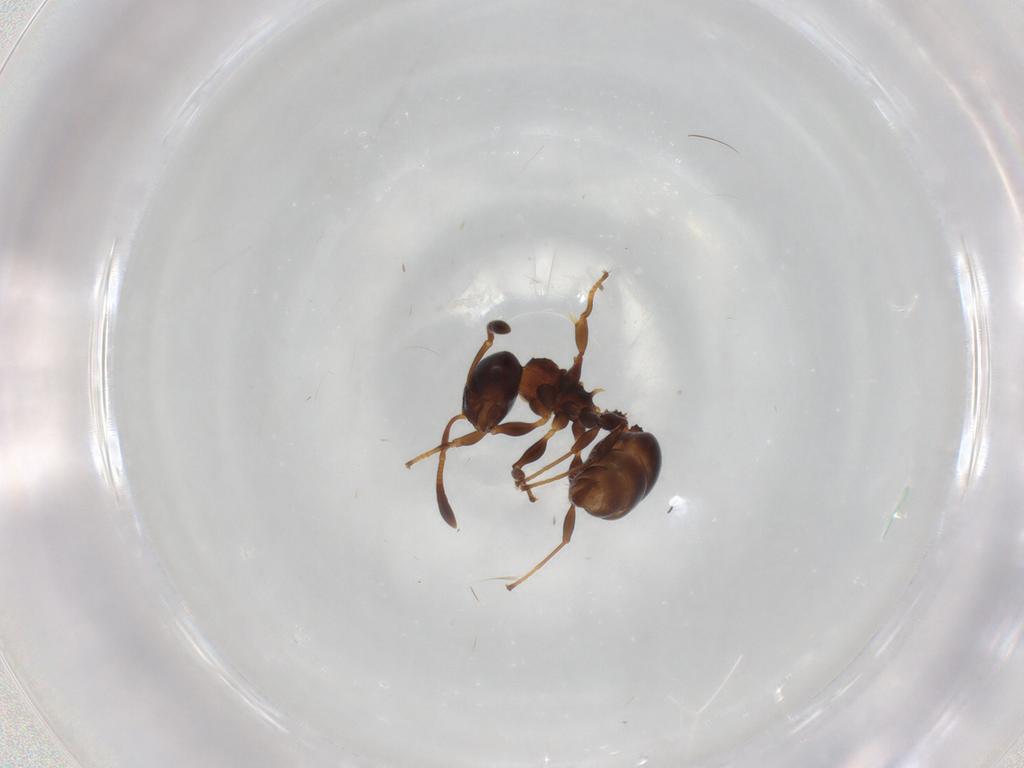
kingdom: Animalia
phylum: Arthropoda
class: Insecta
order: Hymenoptera
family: Formicidae
